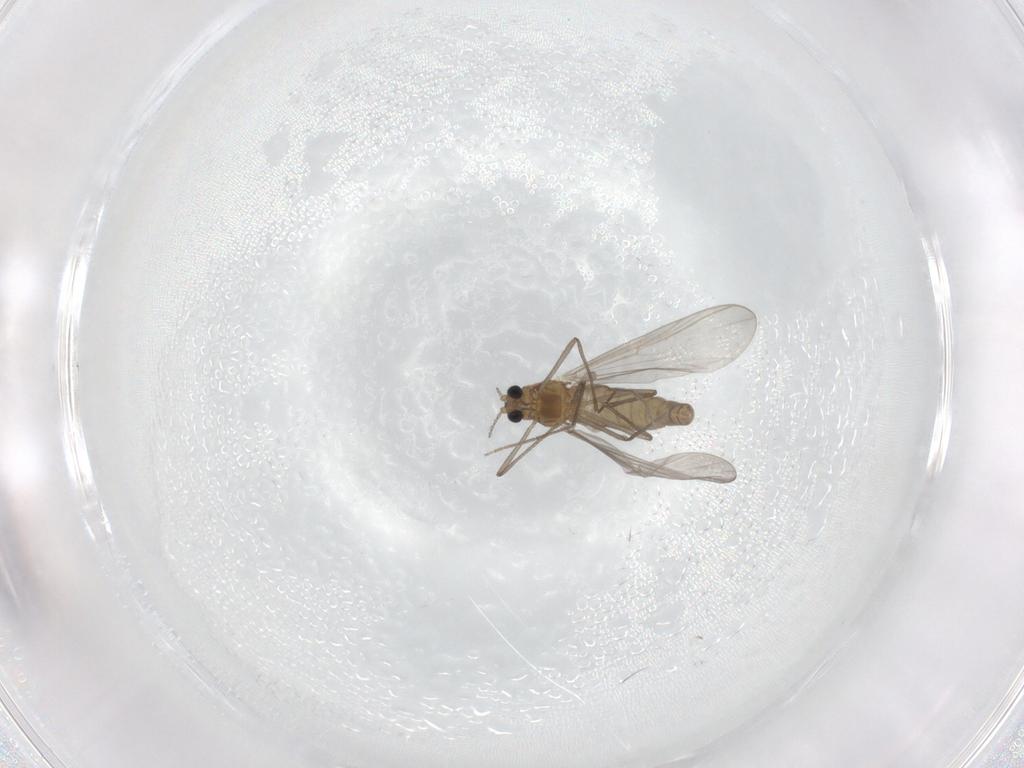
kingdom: Animalia
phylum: Arthropoda
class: Insecta
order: Diptera
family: Chironomidae
